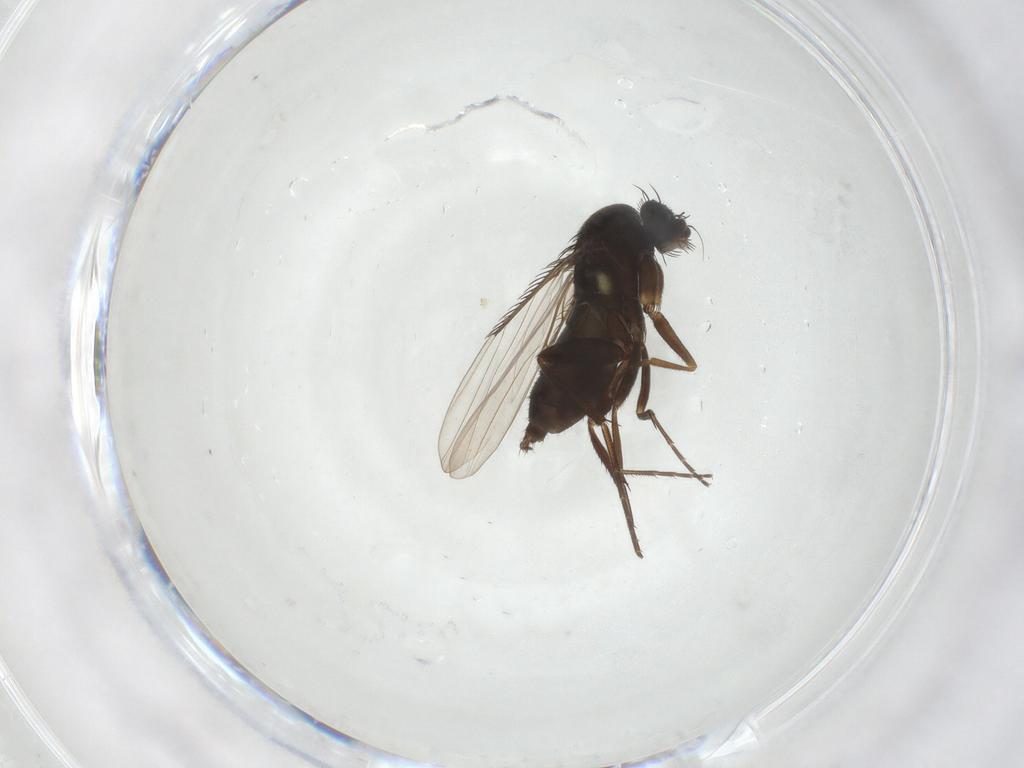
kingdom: Animalia
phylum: Arthropoda
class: Insecta
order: Diptera
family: Phoridae
